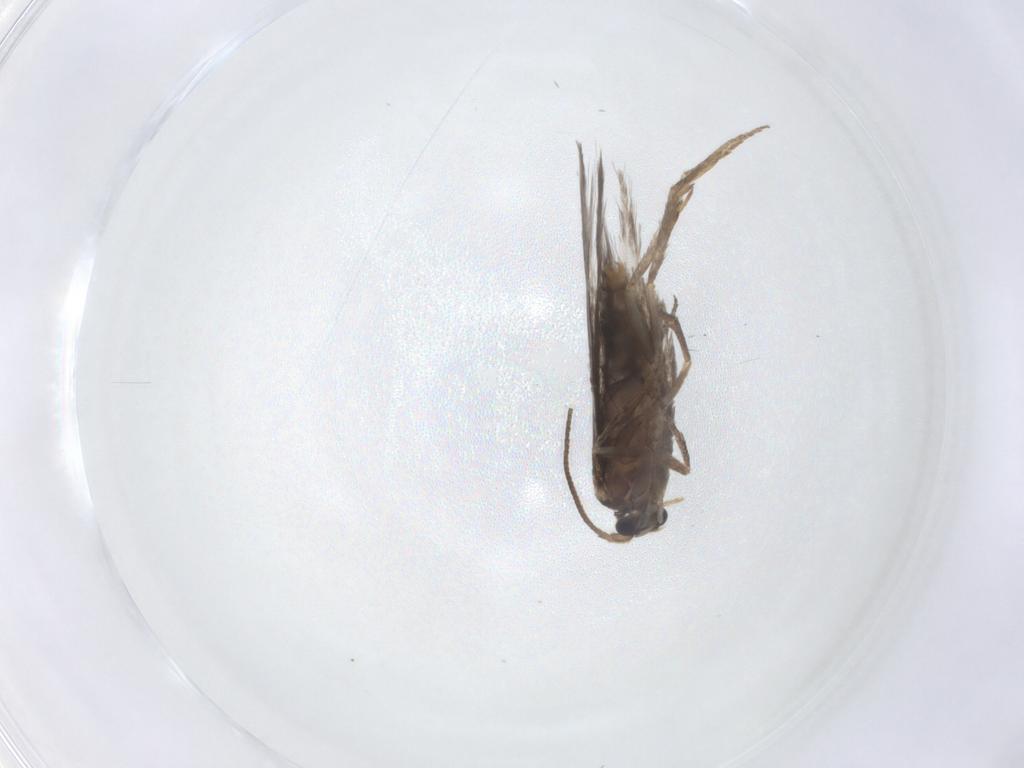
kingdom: Animalia
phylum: Arthropoda
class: Insecta
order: Lepidoptera
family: Nepticulidae
